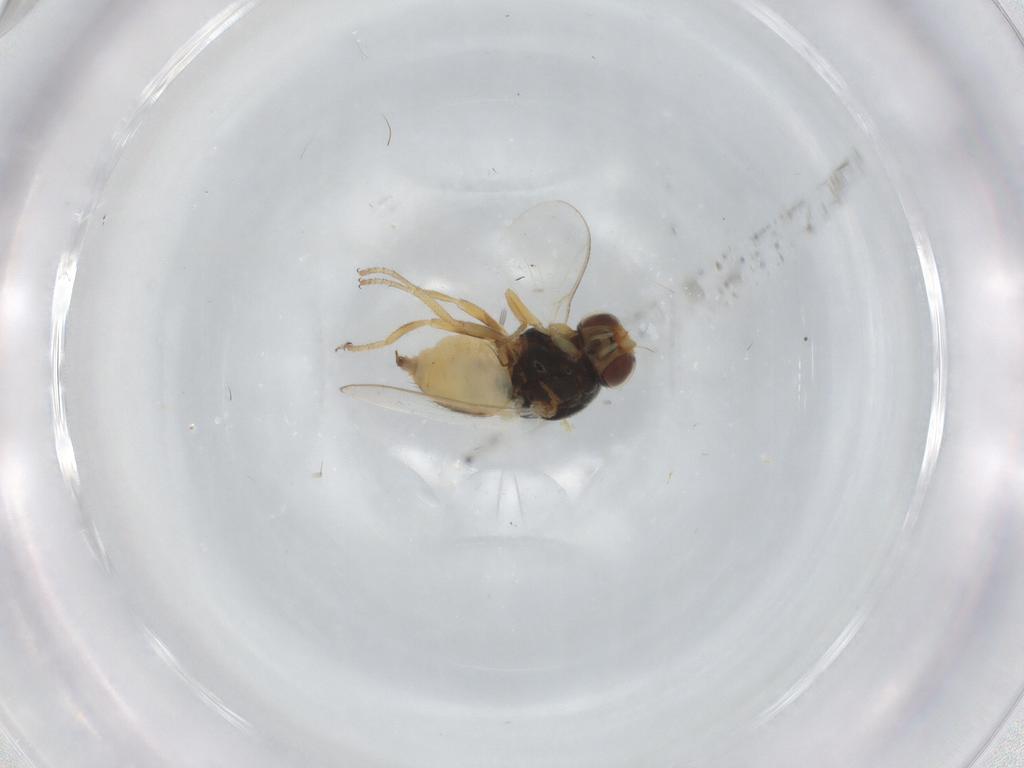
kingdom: Animalia
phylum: Arthropoda
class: Insecta
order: Diptera
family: Chloropidae
